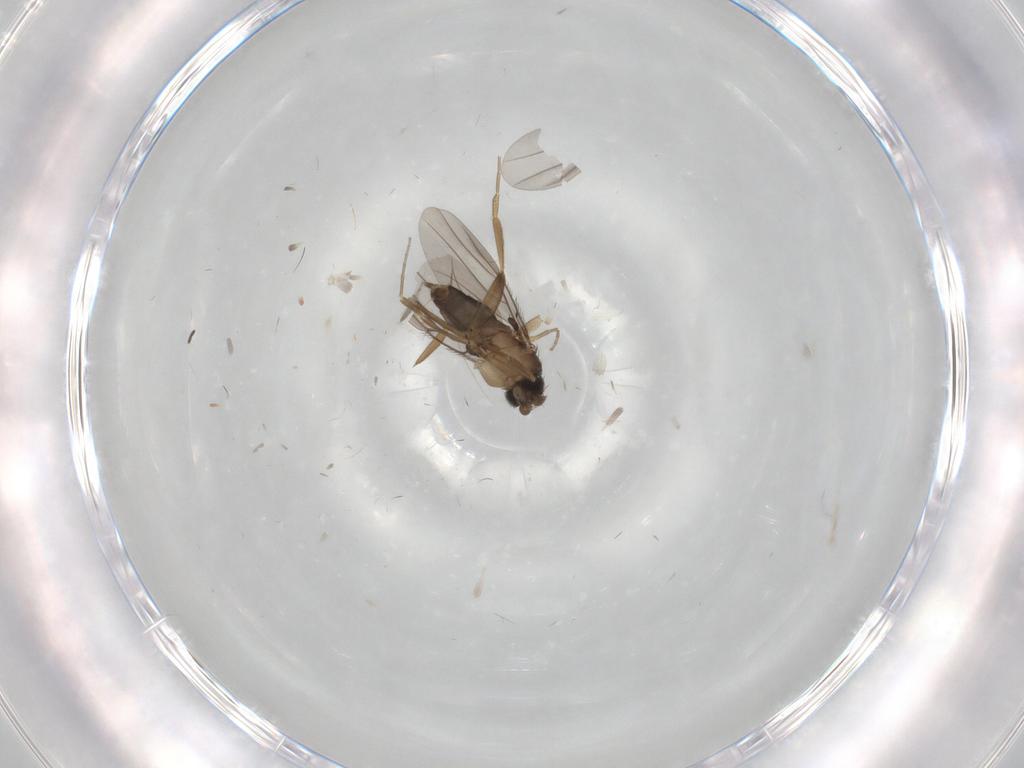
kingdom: Animalia
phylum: Arthropoda
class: Insecta
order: Diptera
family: Phoridae
